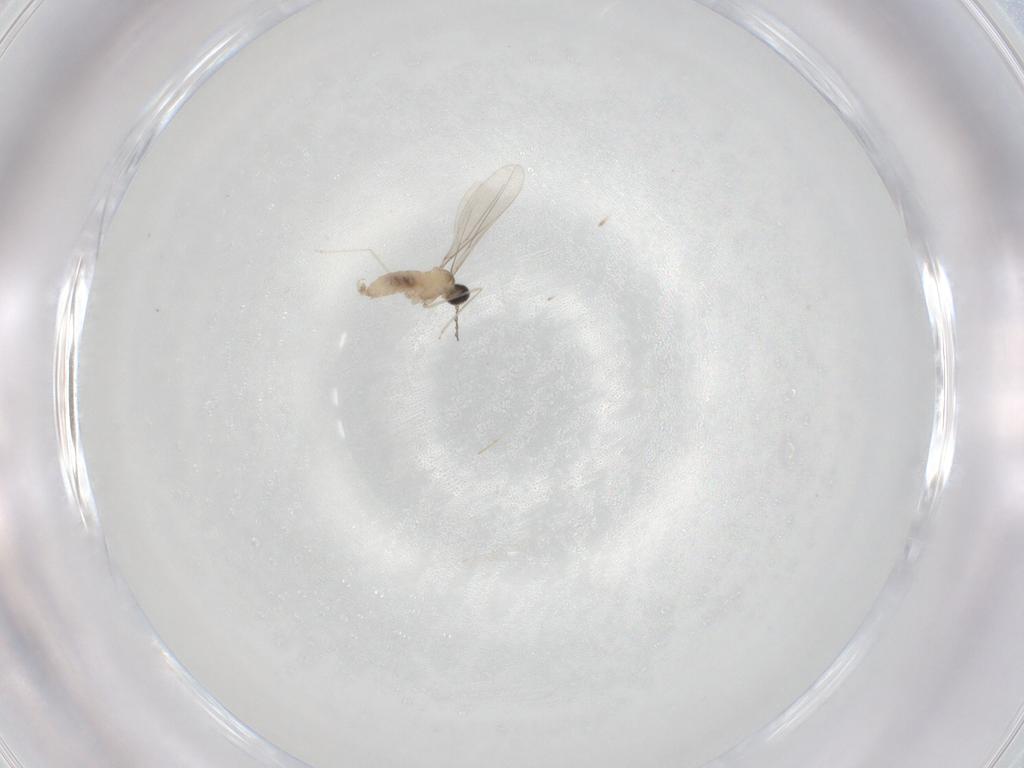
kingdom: Animalia
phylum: Arthropoda
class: Insecta
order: Diptera
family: Cecidomyiidae
